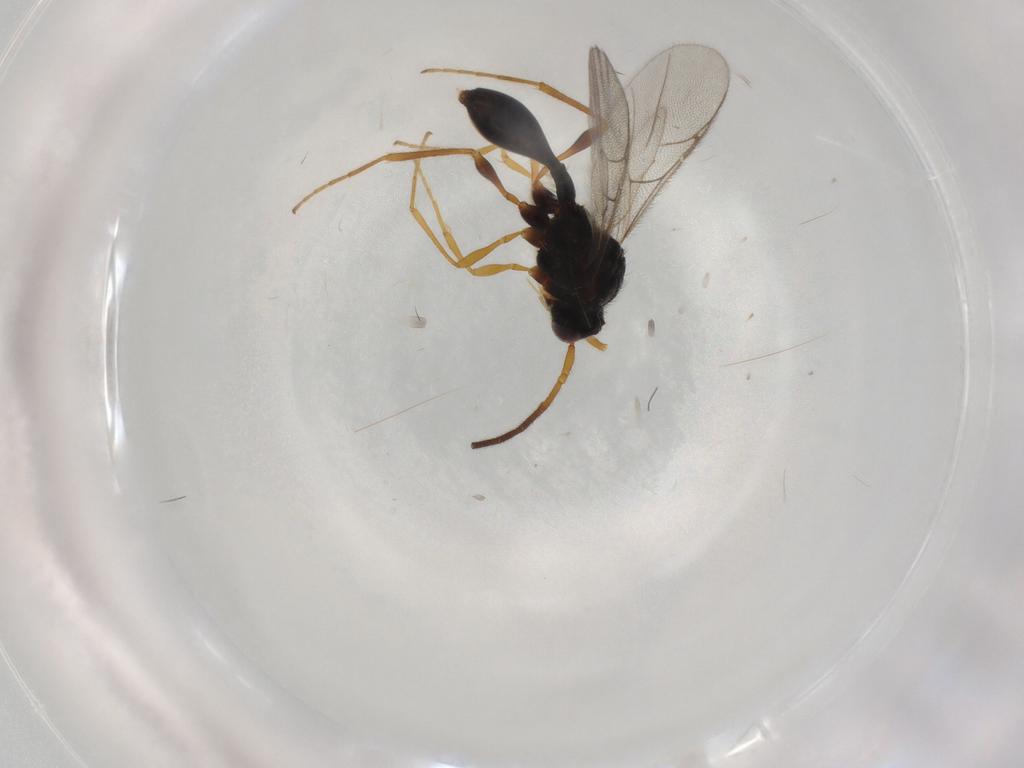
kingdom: Animalia
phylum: Arthropoda
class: Insecta
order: Hymenoptera
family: Diapriidae
